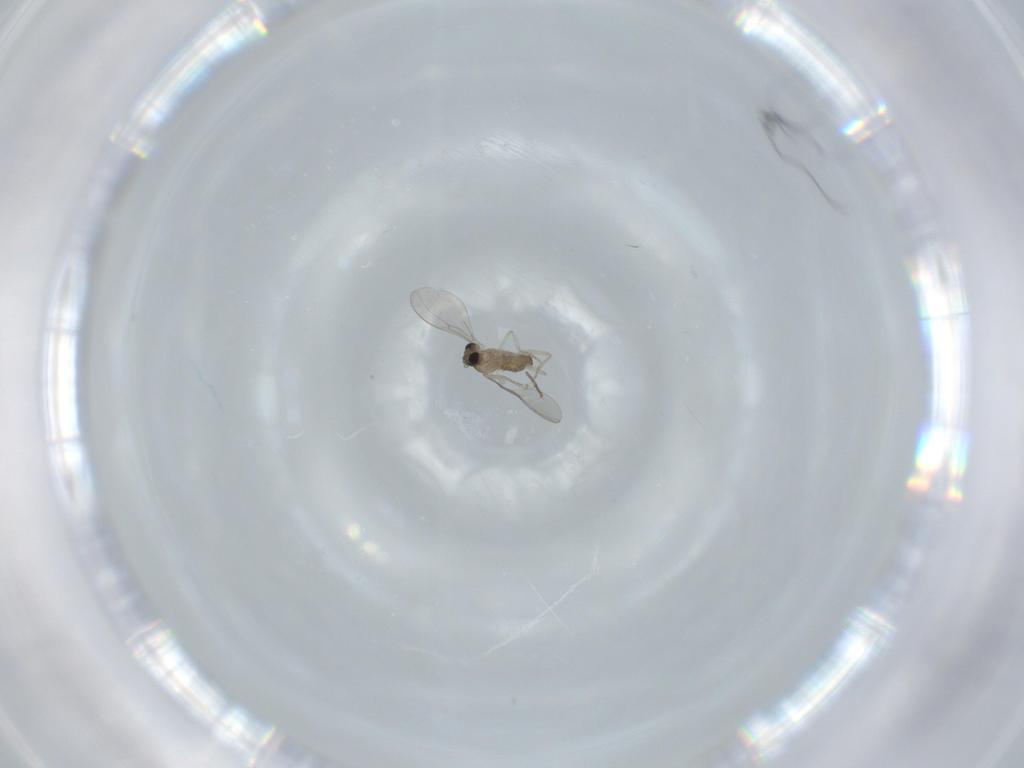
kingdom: Animalia
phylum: Arthropoda
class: Insecta
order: Diptera
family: Cecidomyiidae
